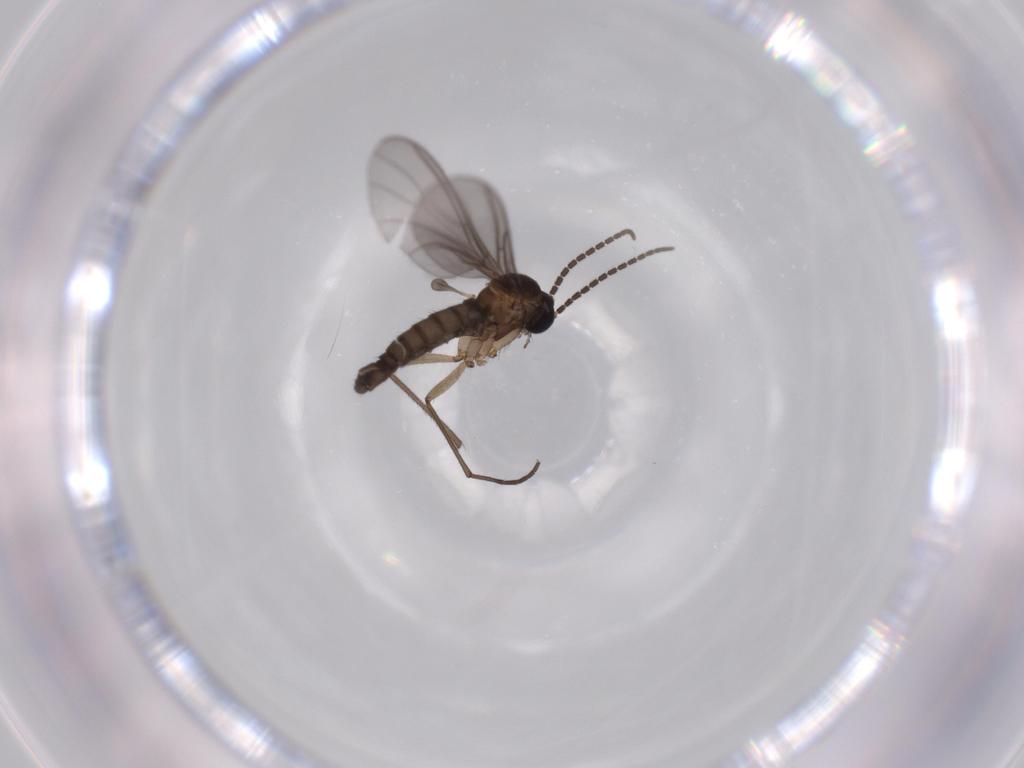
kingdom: Animalia
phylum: Arthropoda
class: Insecta
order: Diptera
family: Sciaridae
